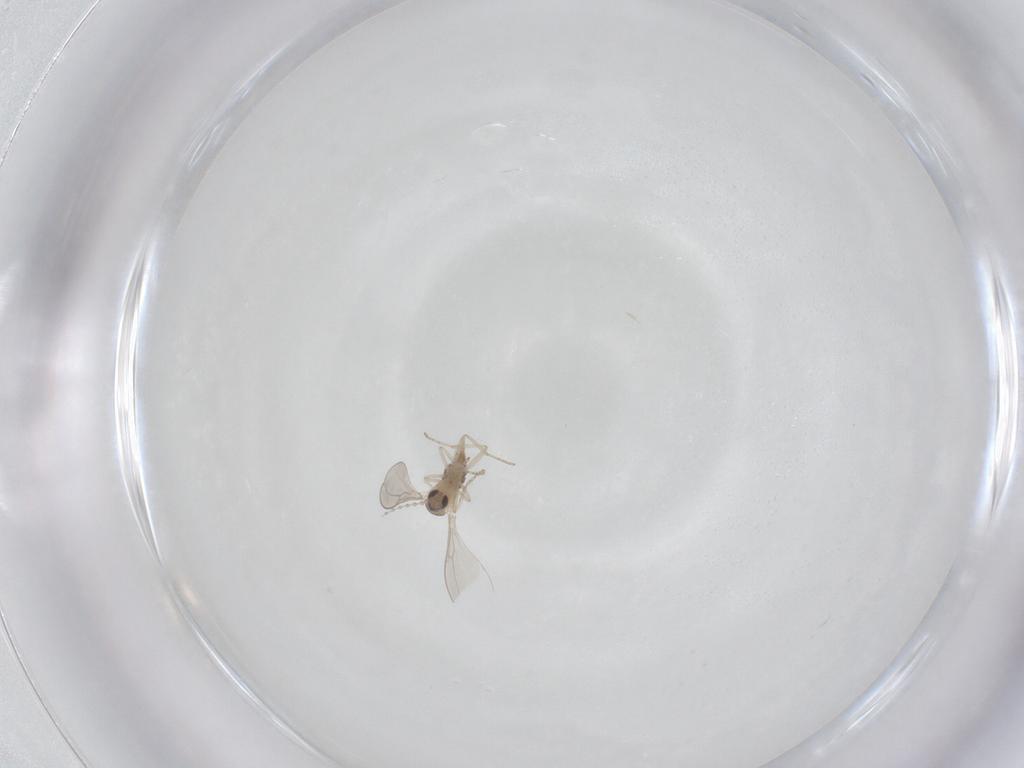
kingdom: Animalia
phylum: Arthropoda
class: Insecta
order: Diptera
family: Cecidomyiidae
